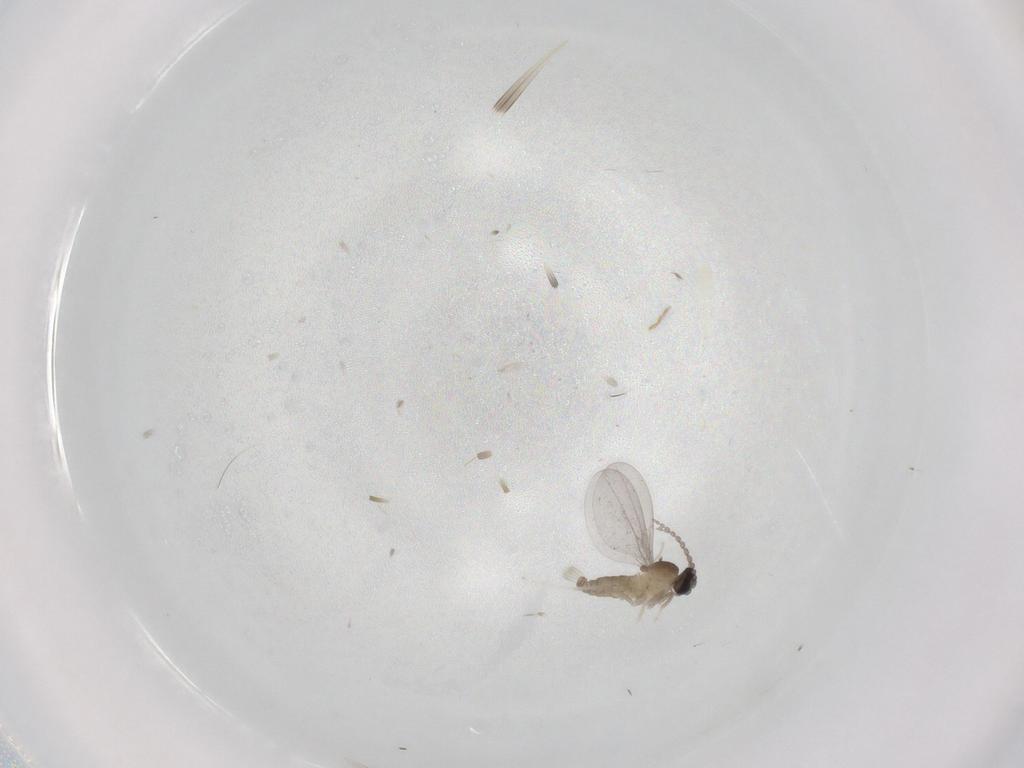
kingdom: Animalia
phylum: Arthropoda
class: Insecta
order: Diptera
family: Cecidomyiidae
